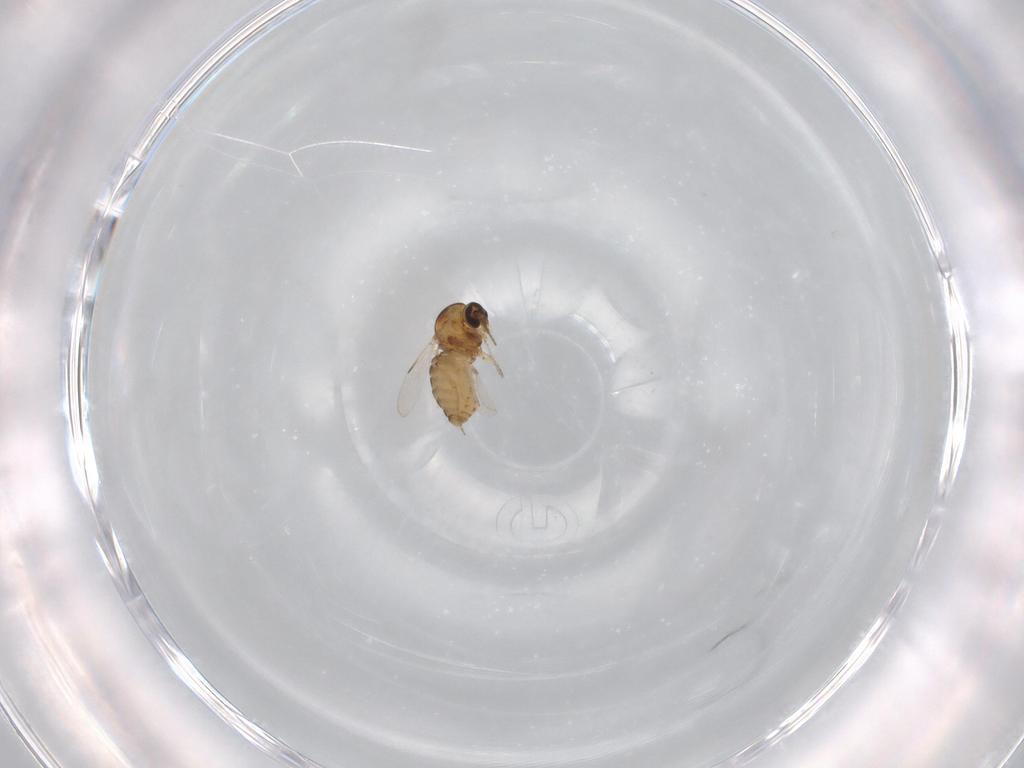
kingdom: Animalia
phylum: Arthropoda
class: Insecta
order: Diptera
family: Ceratopogonidae
